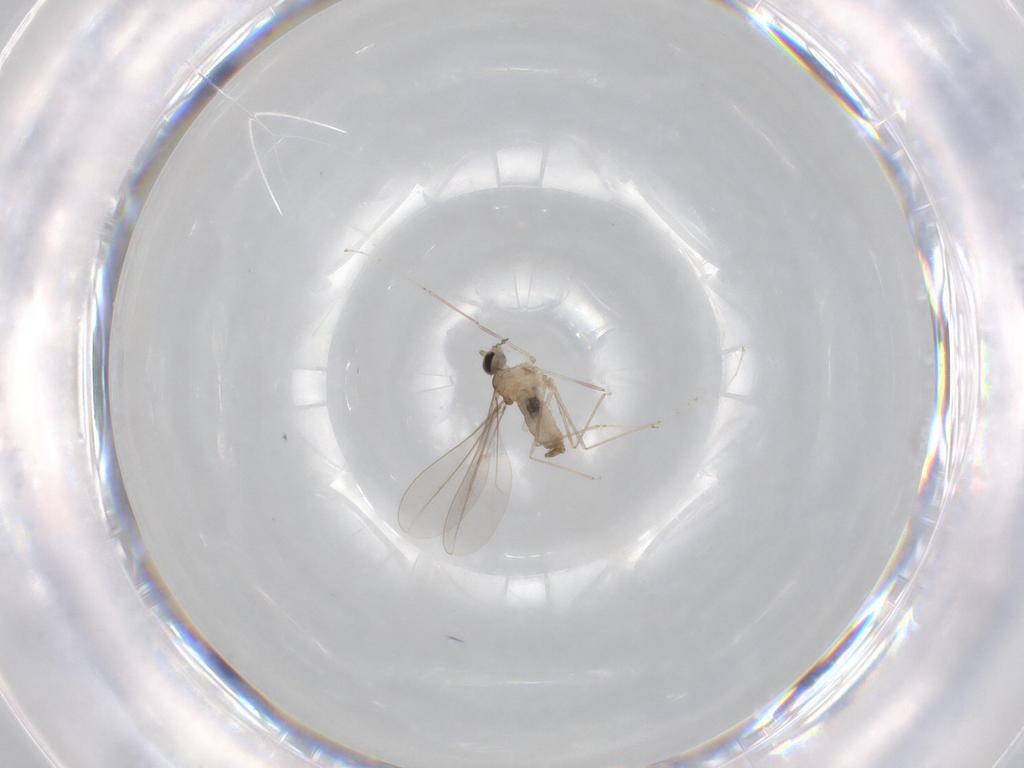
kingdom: Animalia
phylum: Arthropoda
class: Insecta
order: Diptera
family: Cecidomyiidae
